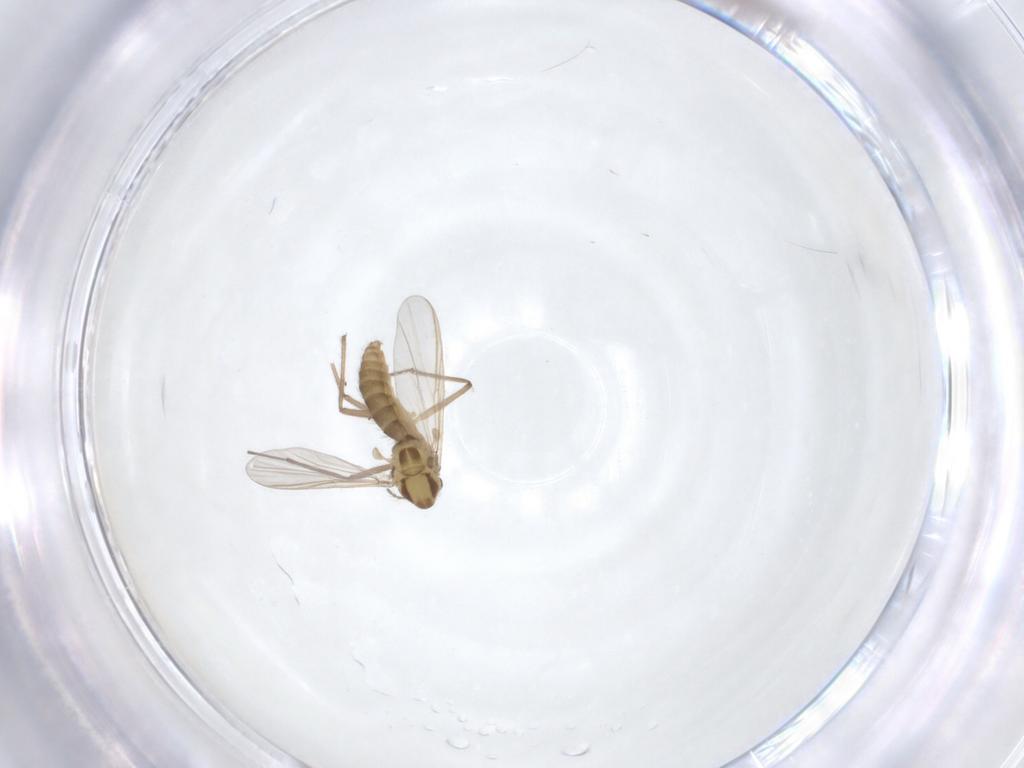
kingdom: Animalia
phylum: Arthropoda
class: Insecta
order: Diptera
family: Chironomidae
